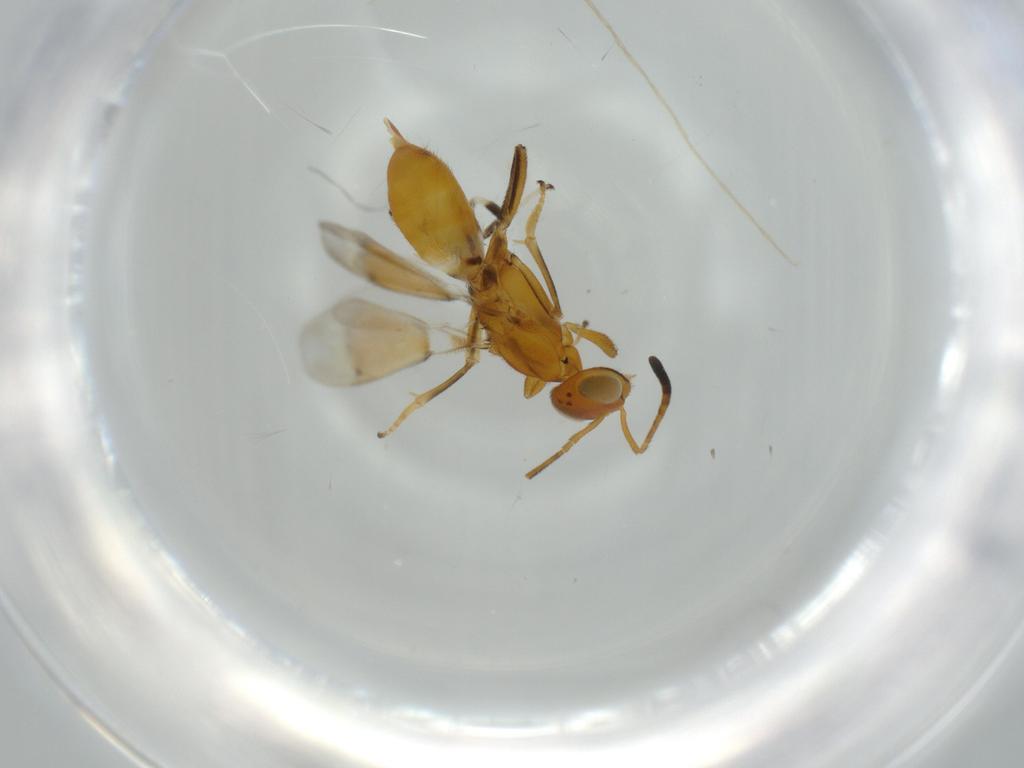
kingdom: Animalia
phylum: Arthropoda
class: Insecta
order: Hymenoptera
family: Eupelmidae
